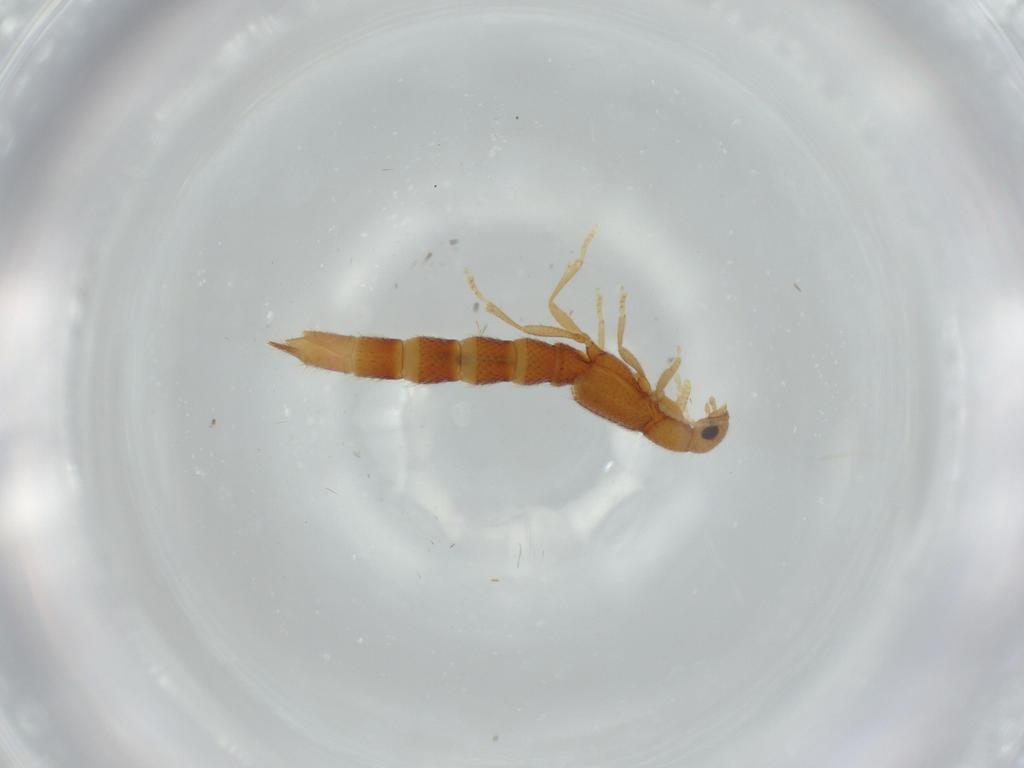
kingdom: Animalia
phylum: Arthropoda
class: Insecta
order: Coleoptera
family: Staphylinidae
